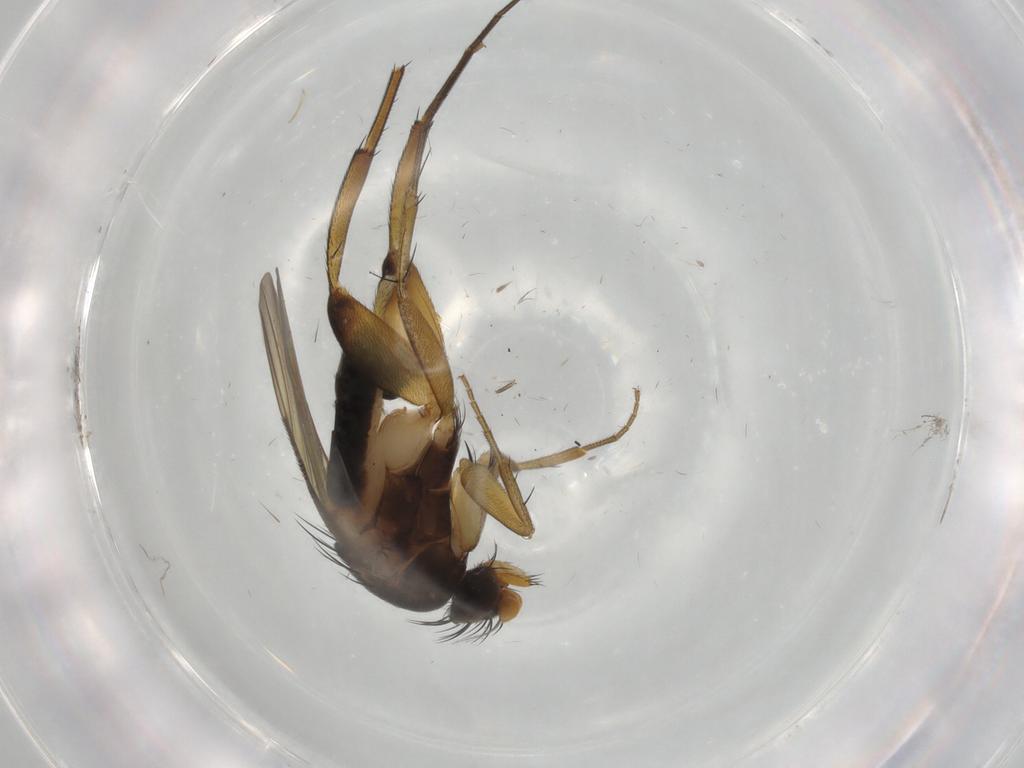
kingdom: Animalia
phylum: Arthropoda
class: Insecta
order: Diptera
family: Phoridae
